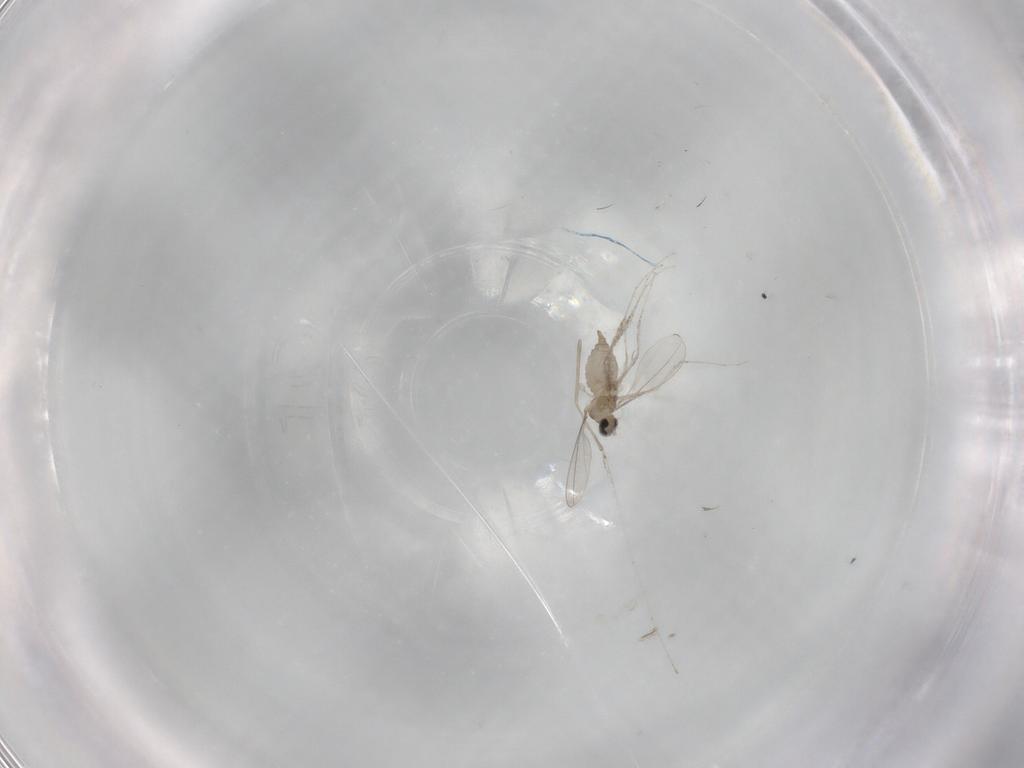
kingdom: Animalia
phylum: Arthropoda
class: Insecta
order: Diptera
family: Cecidomyiidae
